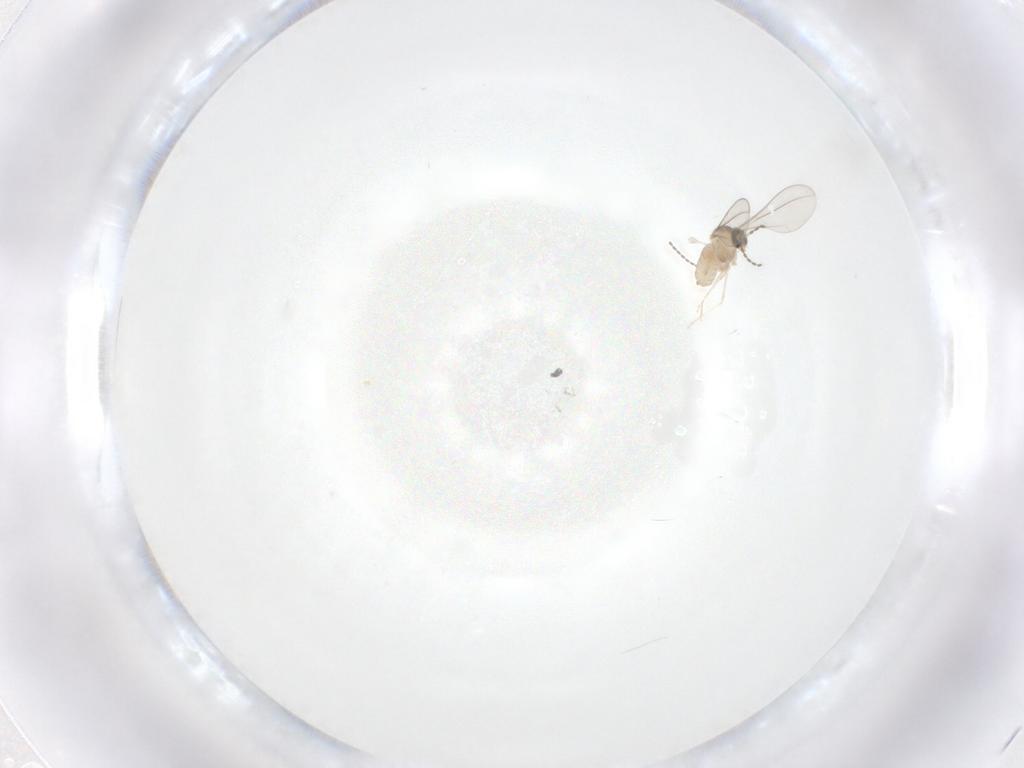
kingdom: Animalia
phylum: Arthropoda
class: Insecta
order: Diptera
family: Cecidomyiidae
